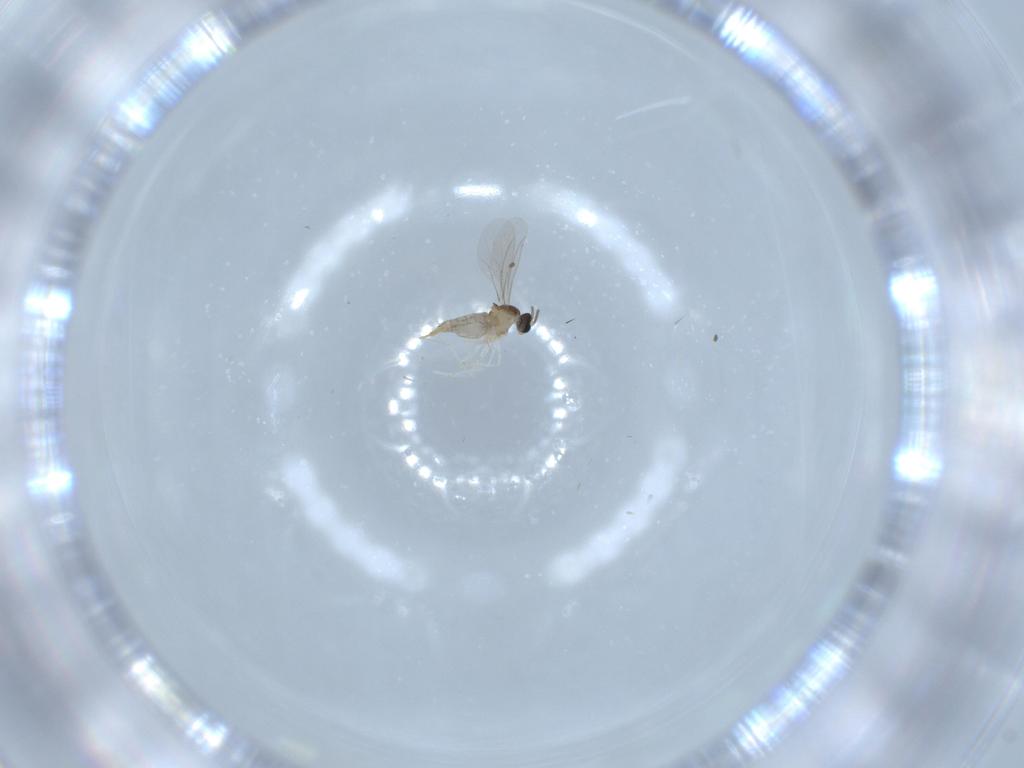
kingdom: Animalia
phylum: Arthropoda
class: Insecta
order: Diptera
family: Sciaridae
